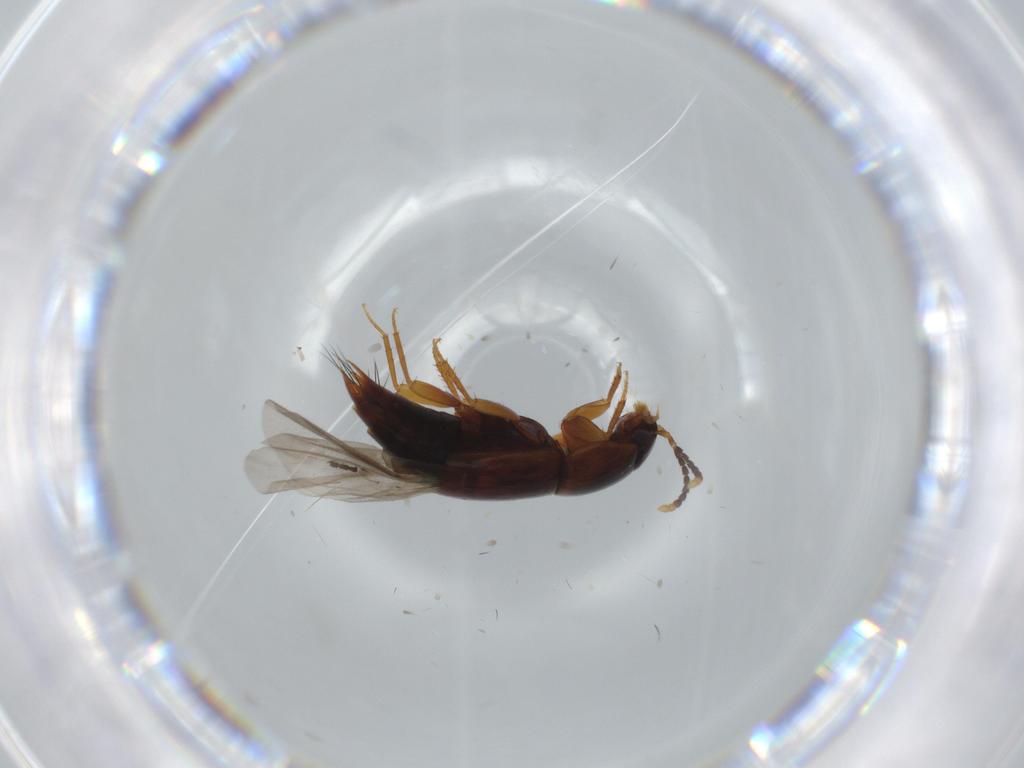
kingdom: Animalia
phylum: Arthropoda
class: Insecta
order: Coleoptera
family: Staphylinidae
